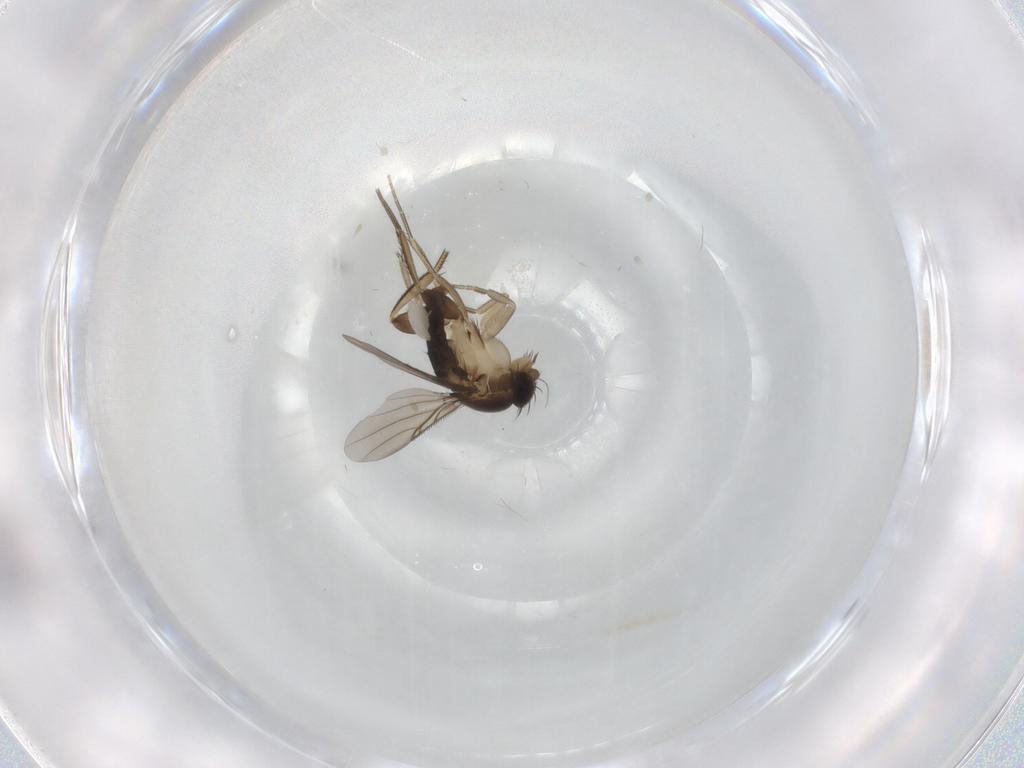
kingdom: Animalia
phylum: Arthropoda
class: Insecta
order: Diptera
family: Phoridae
